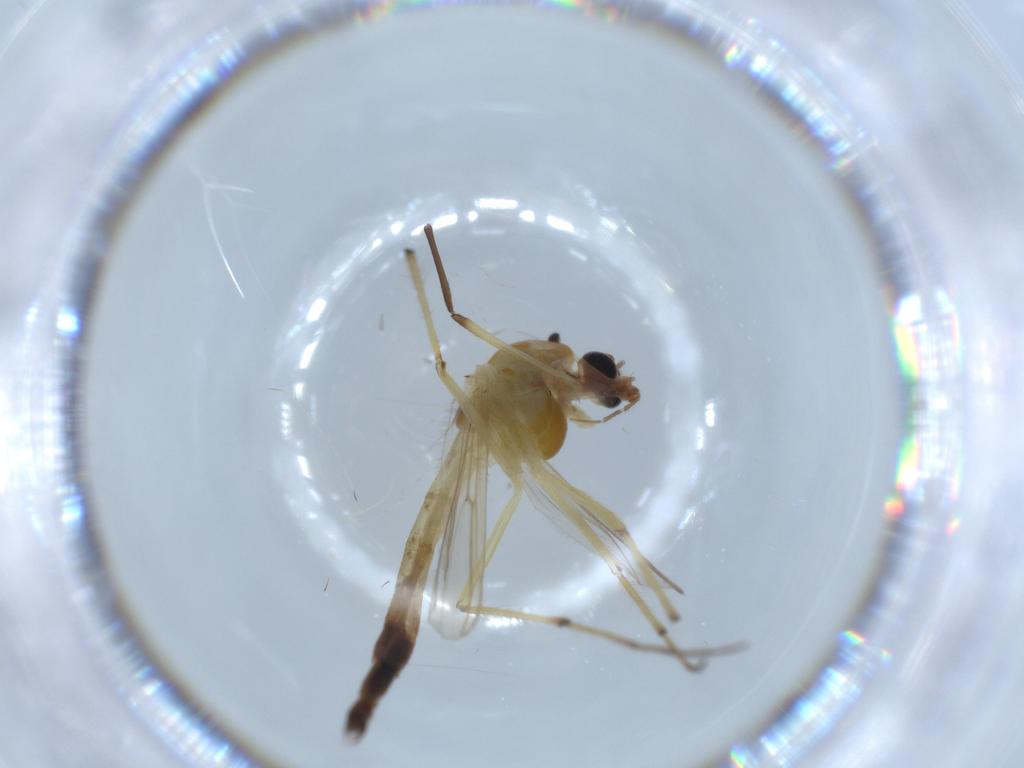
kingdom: Animalia
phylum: Arthropoda
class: Insecta
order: Diptera
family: Chironomidae
